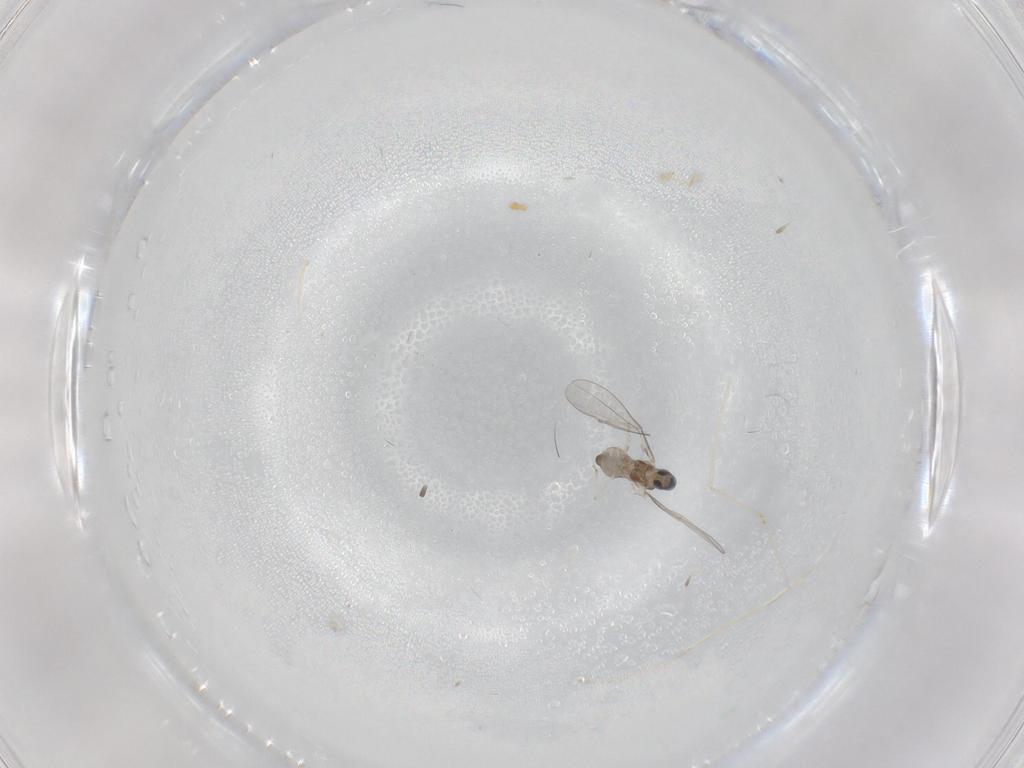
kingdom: Animalia
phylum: Arthropoda
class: Insecta
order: Diptera
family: Cecidomyiidae
